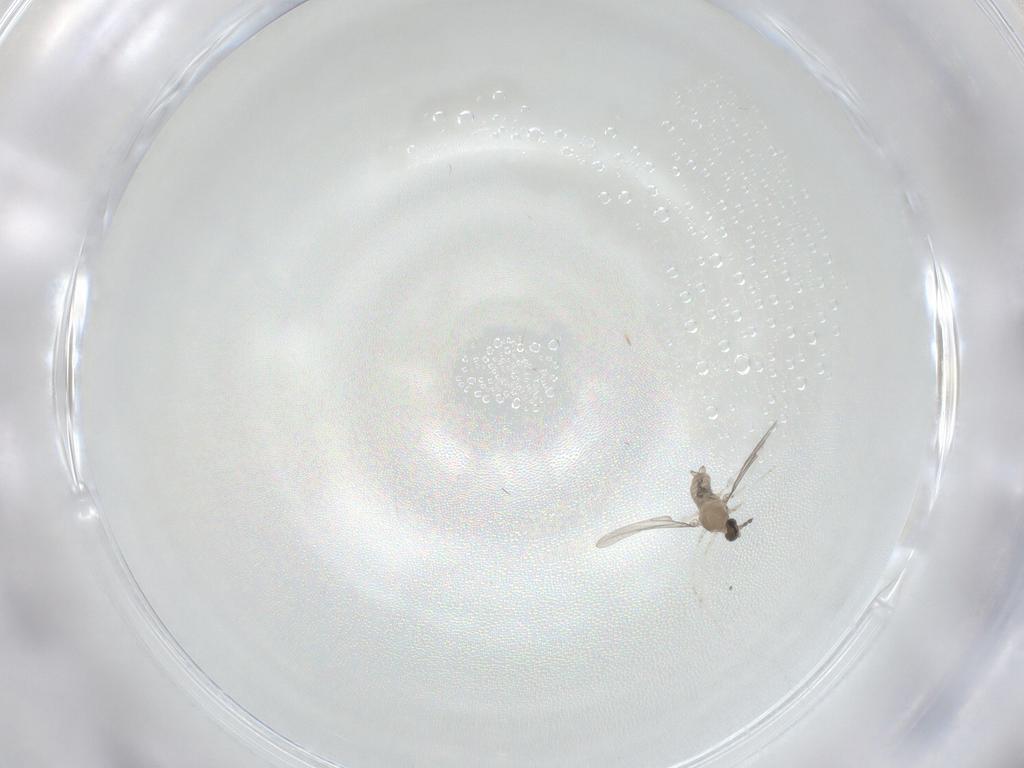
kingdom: Animalia
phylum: Arthropoda
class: Insecta
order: Diptera
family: Cecidomyiidae
